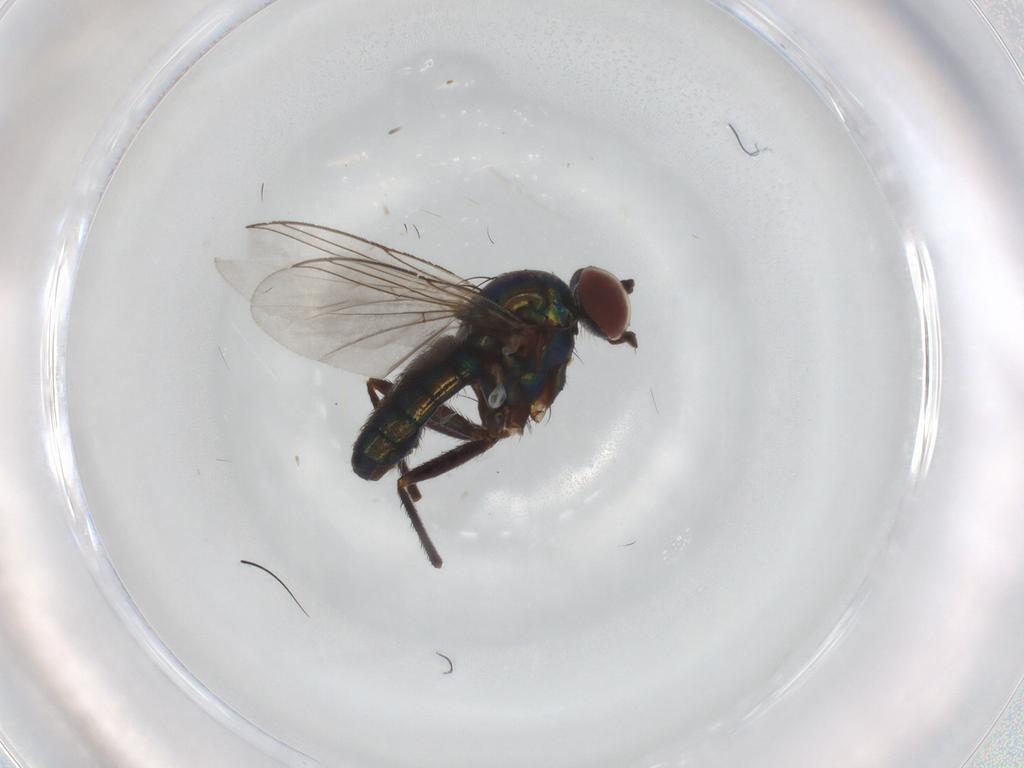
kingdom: Animalia
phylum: Arthropoda
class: Insecta
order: Diptera
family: Dolichopodidae
